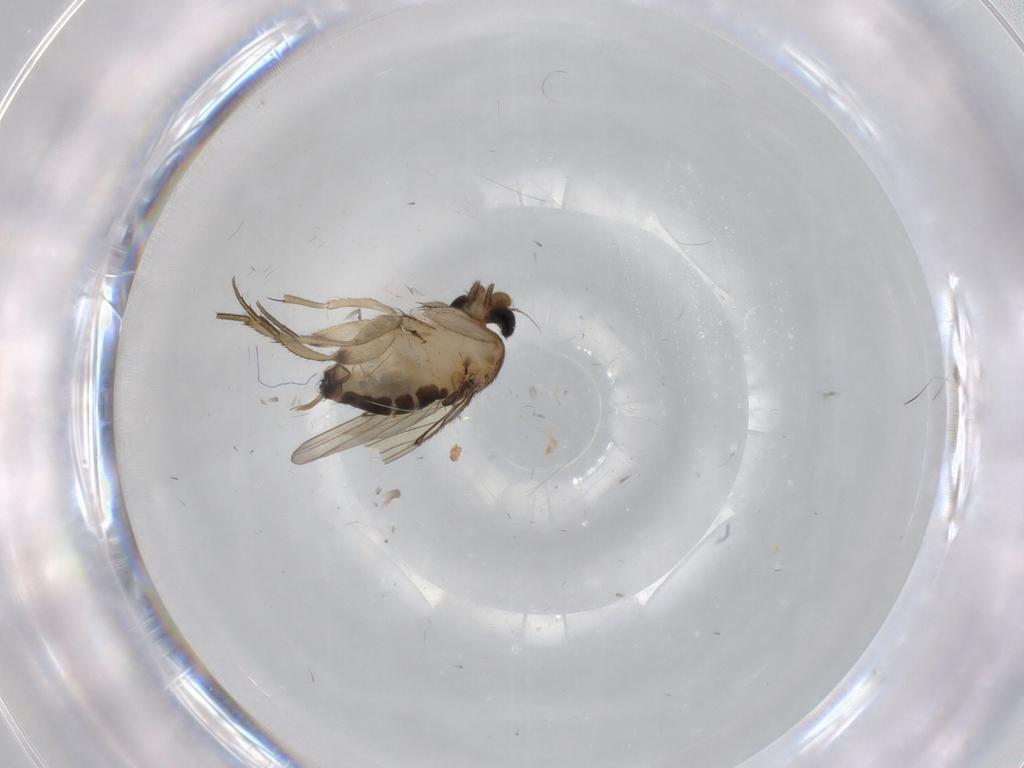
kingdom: Animalia
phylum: Arthropoda
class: Insecta
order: Diptera
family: Phoridae
